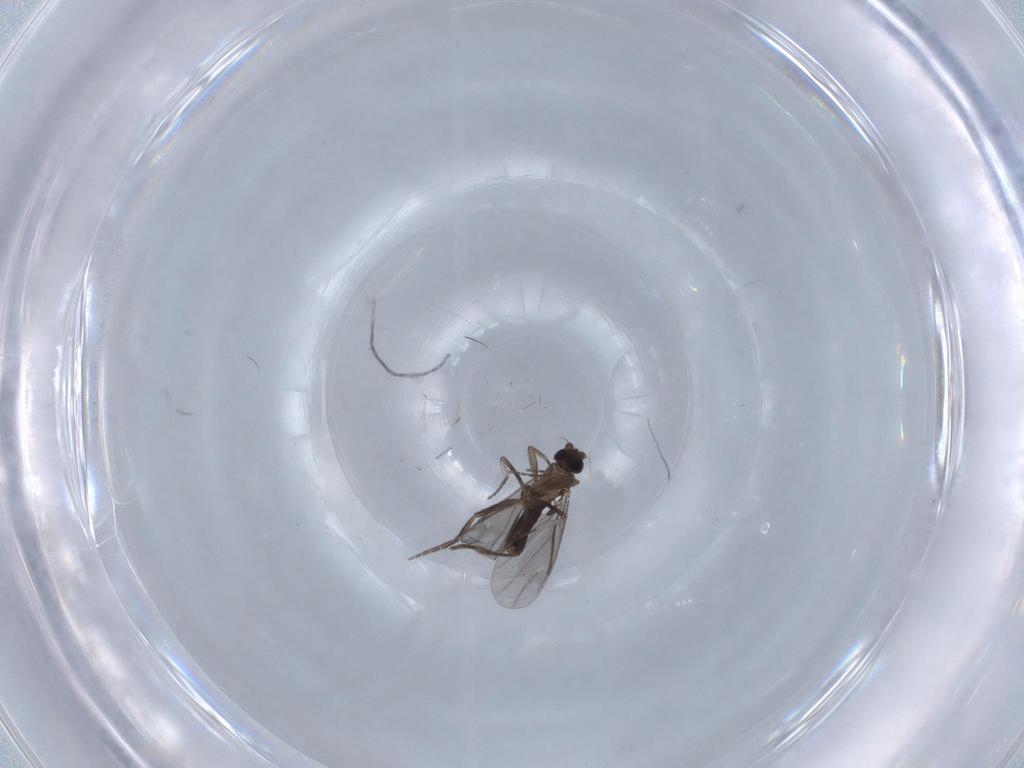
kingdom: Animalia
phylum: Arthropoda
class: Insecta
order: Diptera
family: Phoridae
